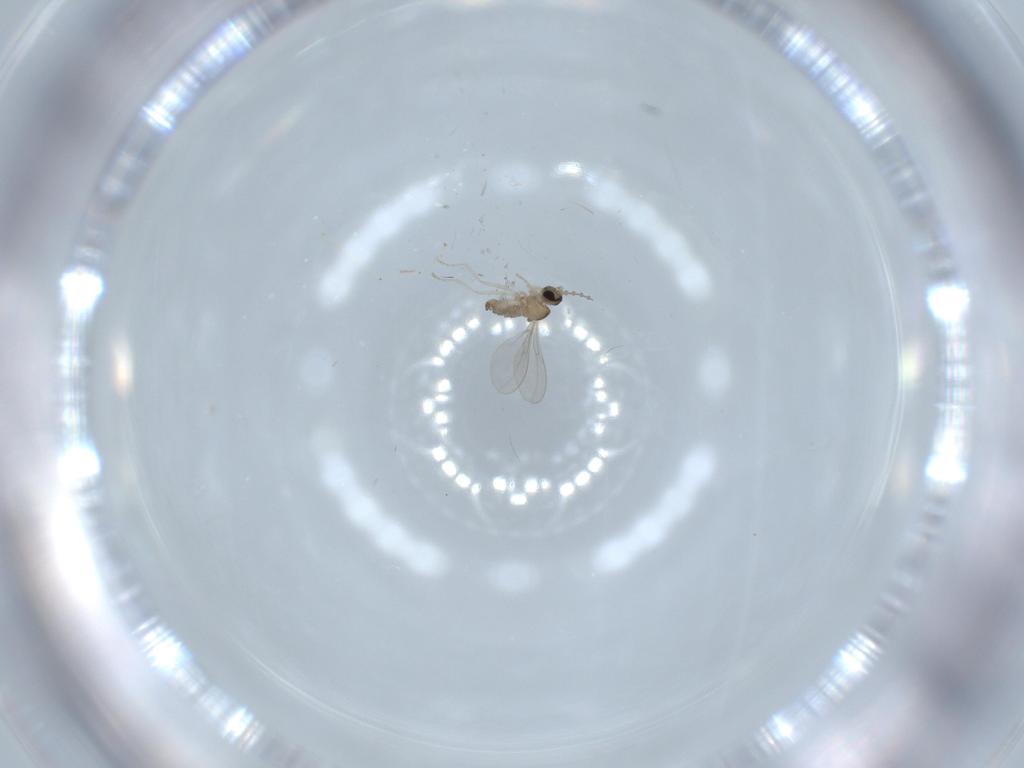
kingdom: Animalia
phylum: Arthropoda
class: Insecta
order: Diptera
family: Cecidomyiidae
